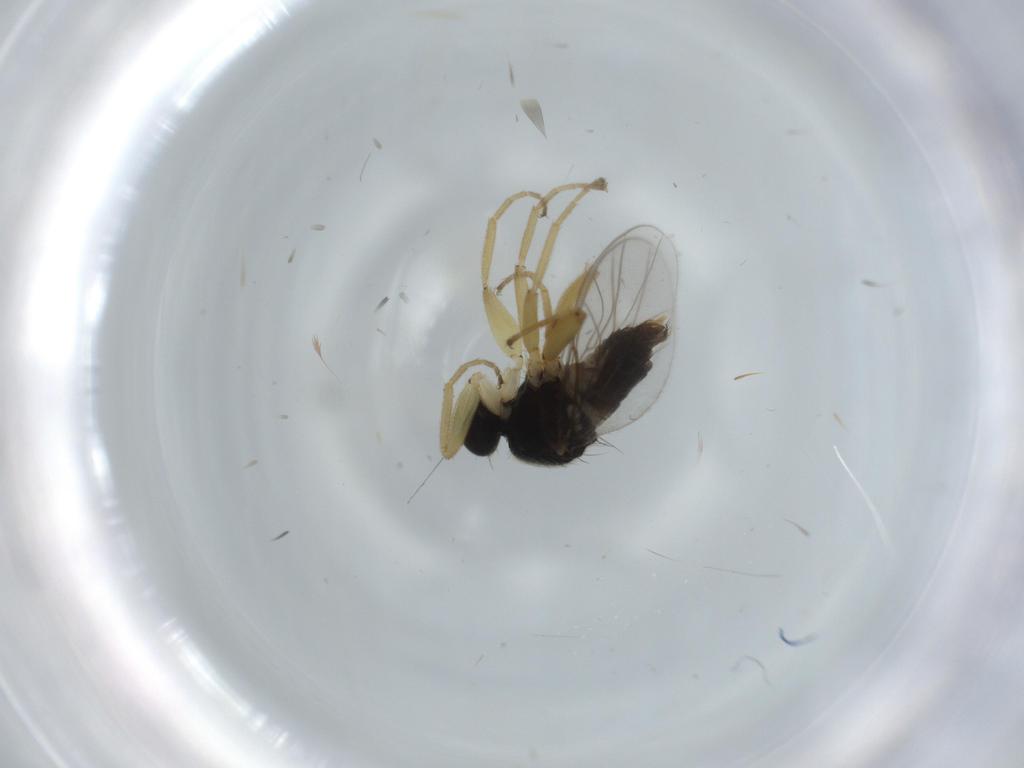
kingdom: Animalia
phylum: Arthropoda
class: Insecta
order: Diptera
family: Hybotidae
